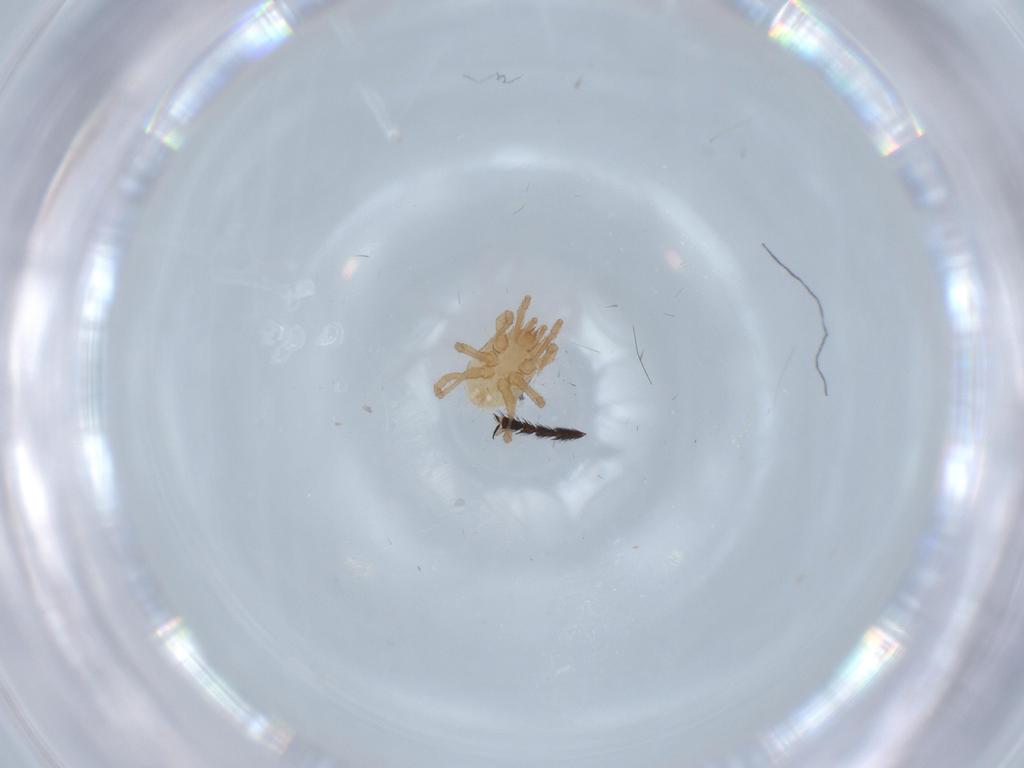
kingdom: Animalia
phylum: Arthropoda
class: Arachnida
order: Mesostigmata
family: Parasitidae
